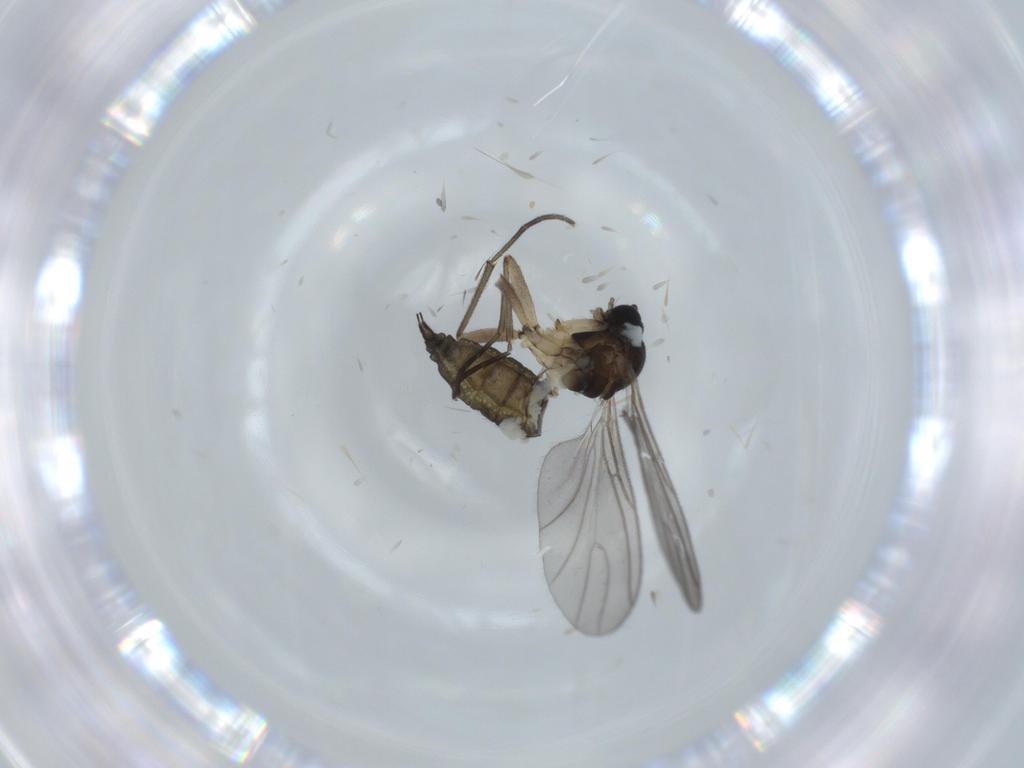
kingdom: Animalia
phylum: Arthropoda
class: Insecta
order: Diptera
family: Sciaridae
